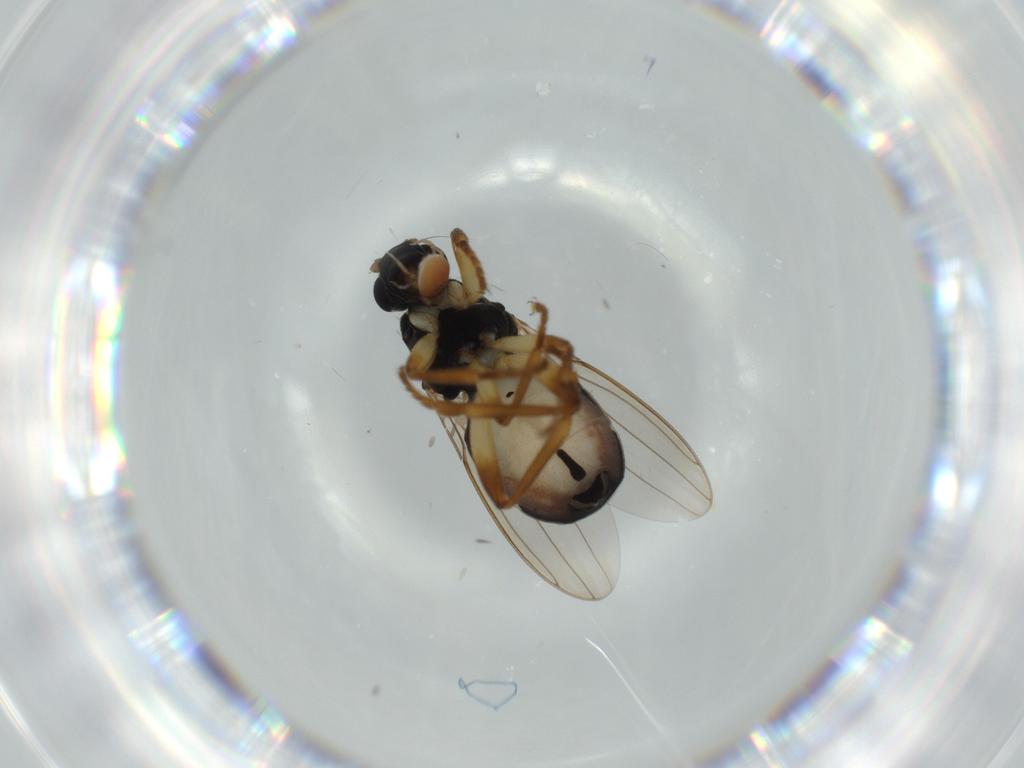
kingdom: Animalia
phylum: Arthropoda
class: Insecta
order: Diptera
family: Sphaeroceridae
